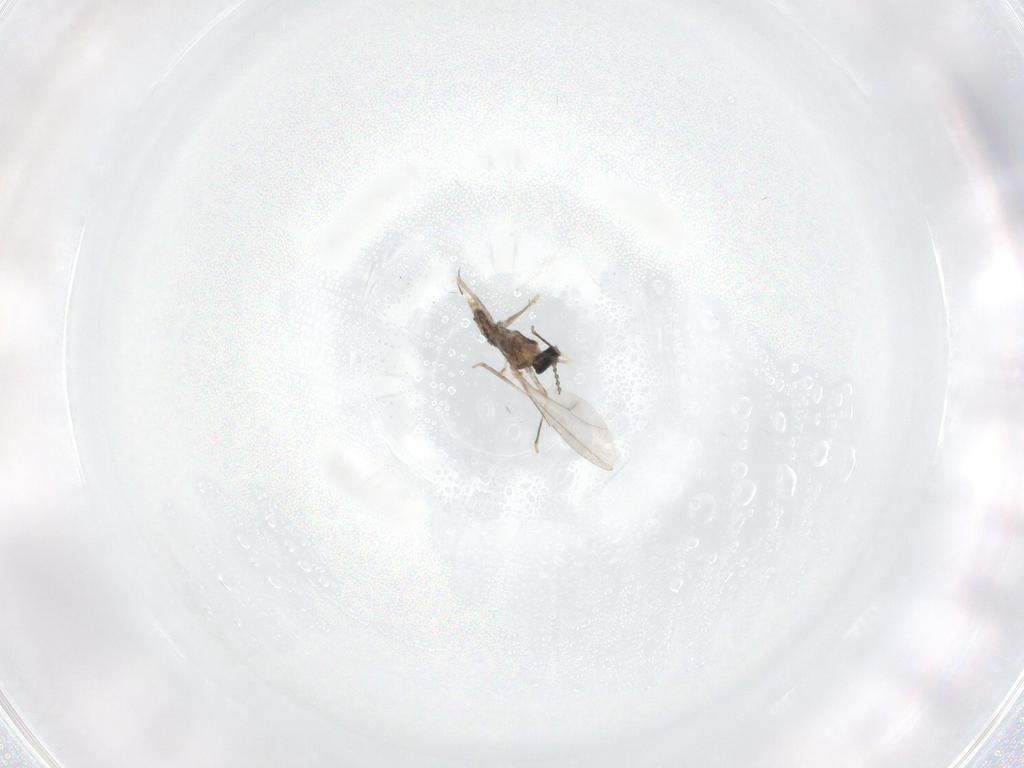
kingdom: Animalia
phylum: Arthropoda
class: Insecta
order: Diptera
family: Cecidomyiidae
